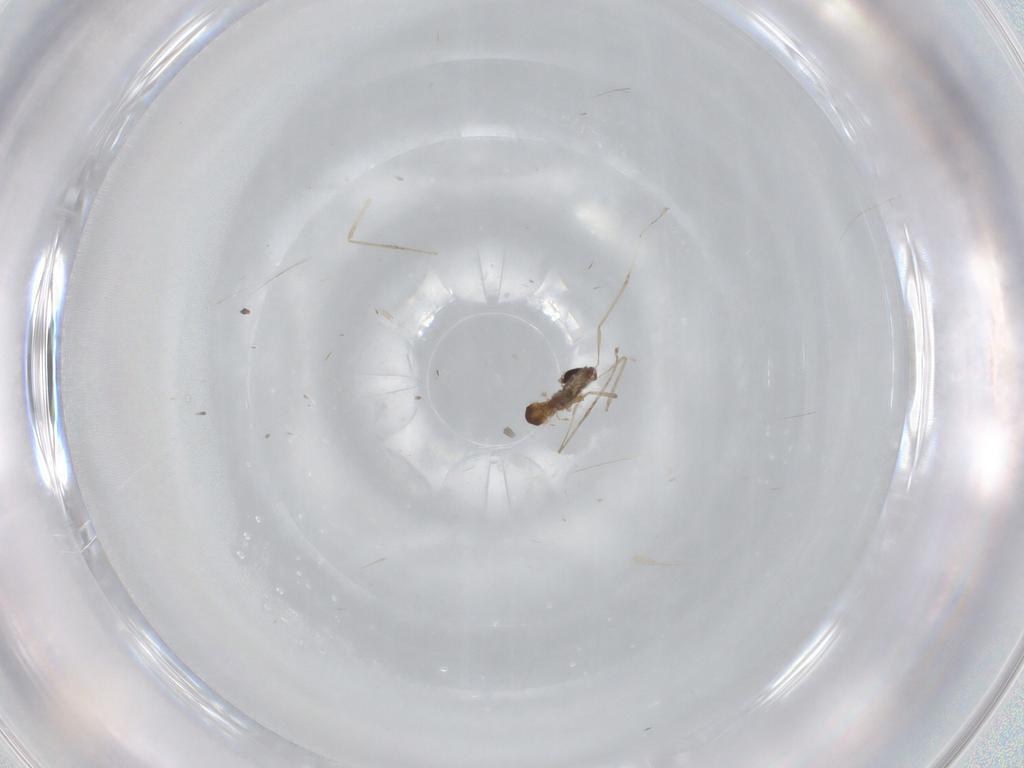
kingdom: Animalia
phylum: Arthropoda
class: Insecta
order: Diptera
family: Cecidomyiidae
